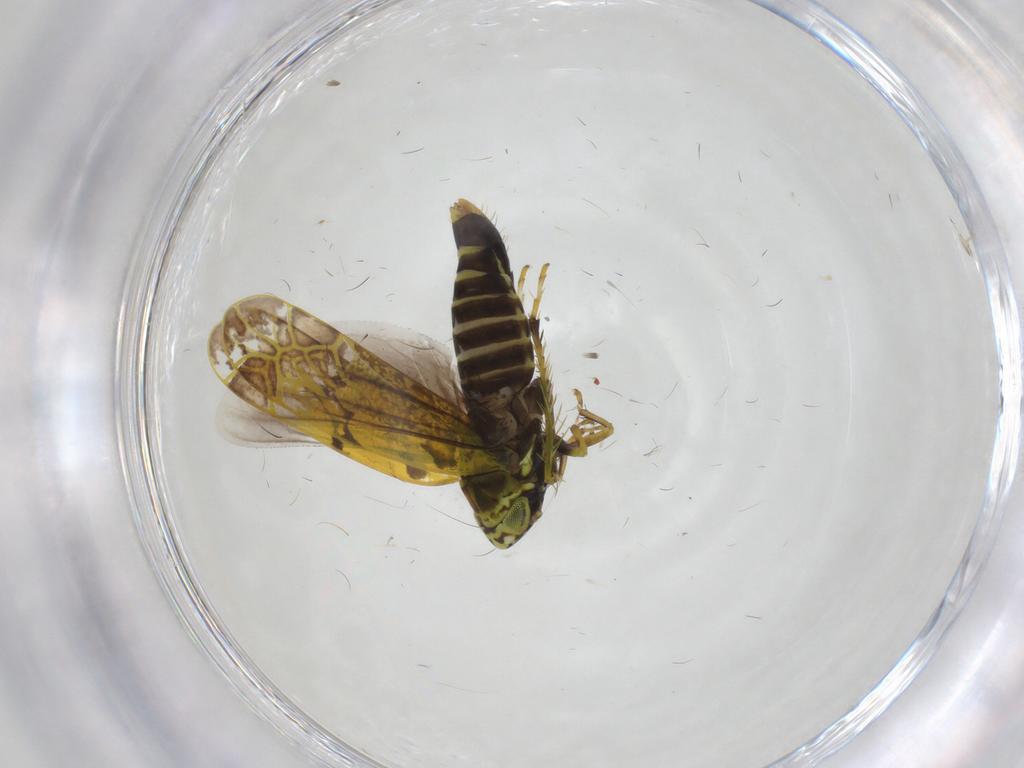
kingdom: Animalia
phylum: Arthropoda
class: Insecta
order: Hemiptera
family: Cicadellidae
